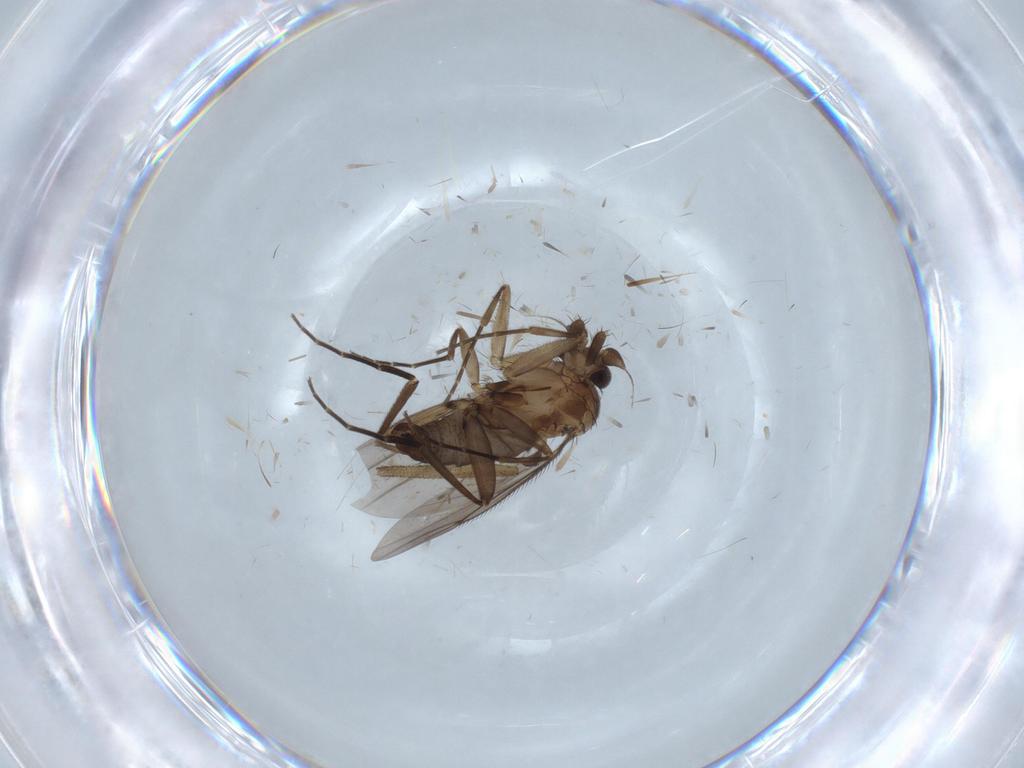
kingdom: Animalia
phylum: Arthropoda
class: Insecta
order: Diptera
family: Phoridae
